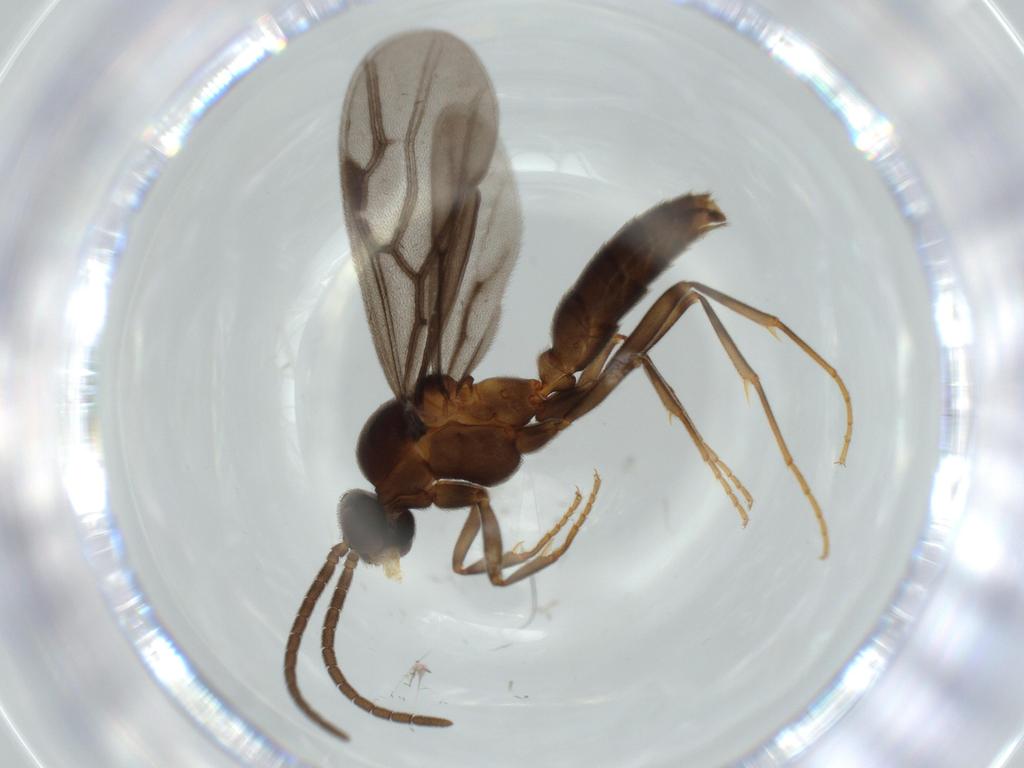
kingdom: Animalia
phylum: Arthropoda
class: Insecta
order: Hymenoptera
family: Formicidae
